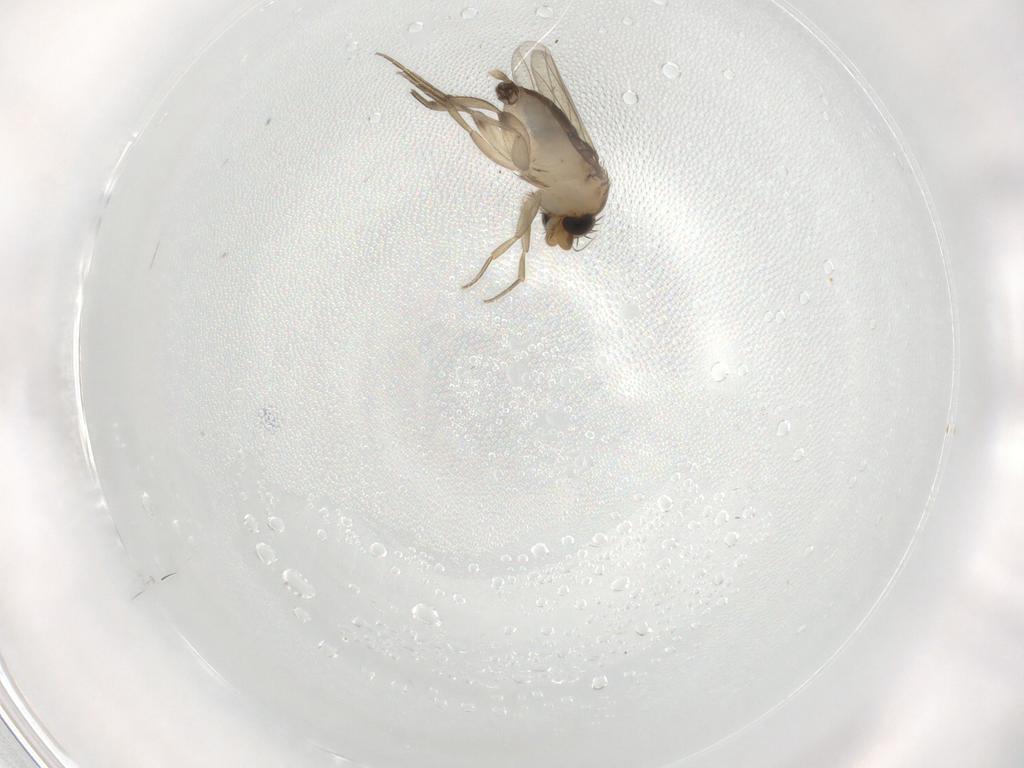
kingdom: Animalia
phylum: Arthropoda
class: Insecta
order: Diptera
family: Phoridae
